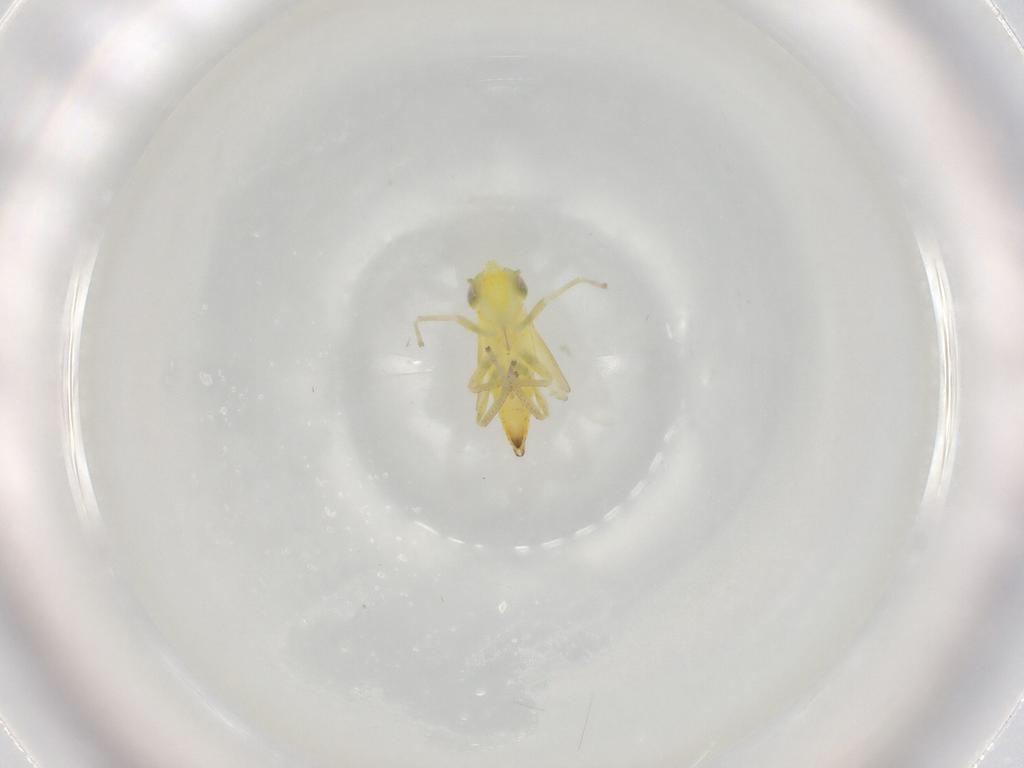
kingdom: Animalia
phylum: Arthropoda
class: Insecta
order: Hemiptera
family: Cicadellidae
